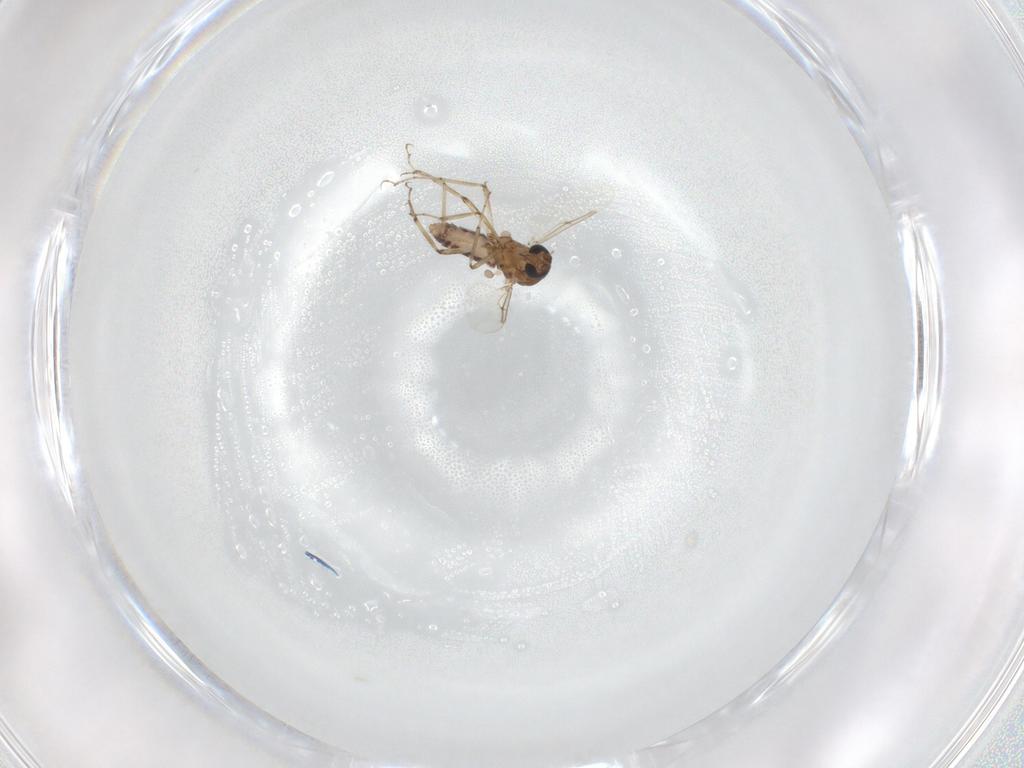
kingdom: Animalia
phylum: Arthropoda
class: Insecta
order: Diptera
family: Ceratopogonidae
